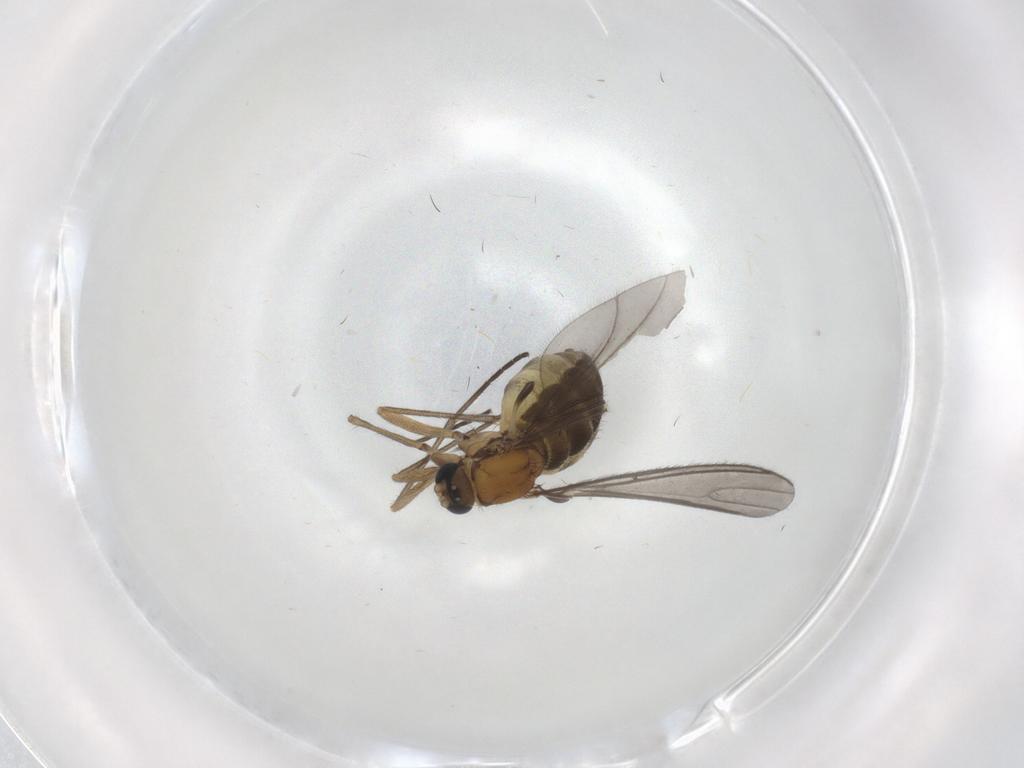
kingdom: Animalia
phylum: Arthropoda
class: Insecta
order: Diptera
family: Sciaridae
